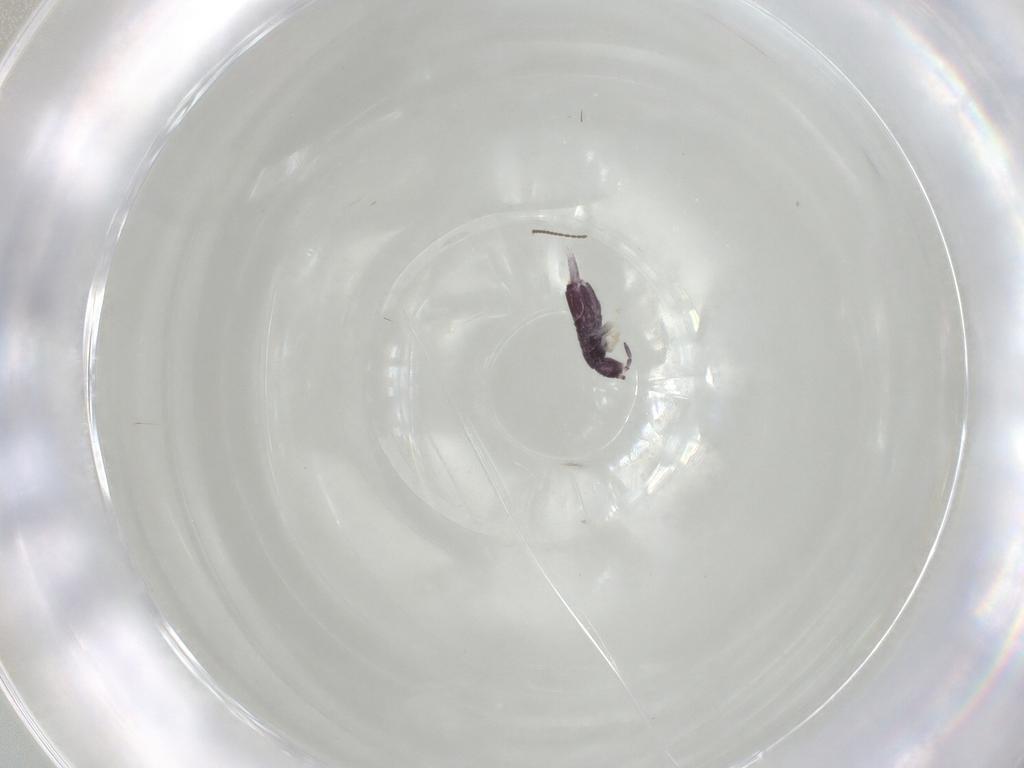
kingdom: Animalia
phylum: Arthropoda
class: Collembola
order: Entomobryomorpha
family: Entomobryidae
